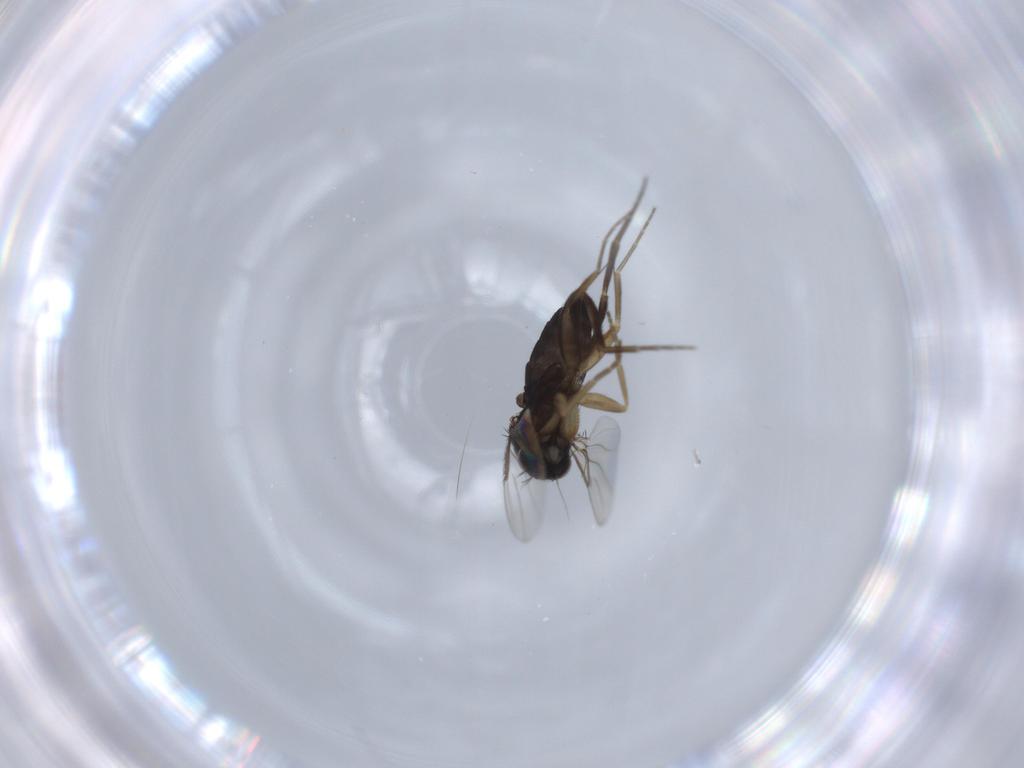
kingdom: Animalia
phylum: Arthropoda
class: Insecta
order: Diptera
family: Phoridae
